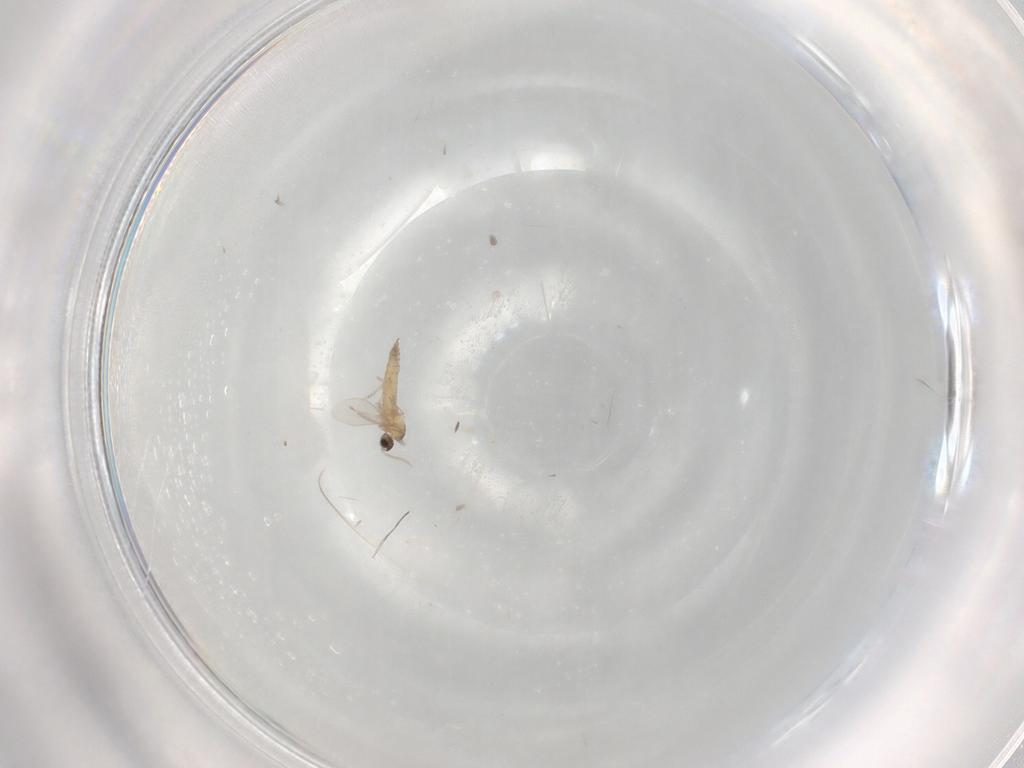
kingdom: Animalia
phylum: Arthropoda
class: Insecta
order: Diptera
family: Cecidomyiidae
